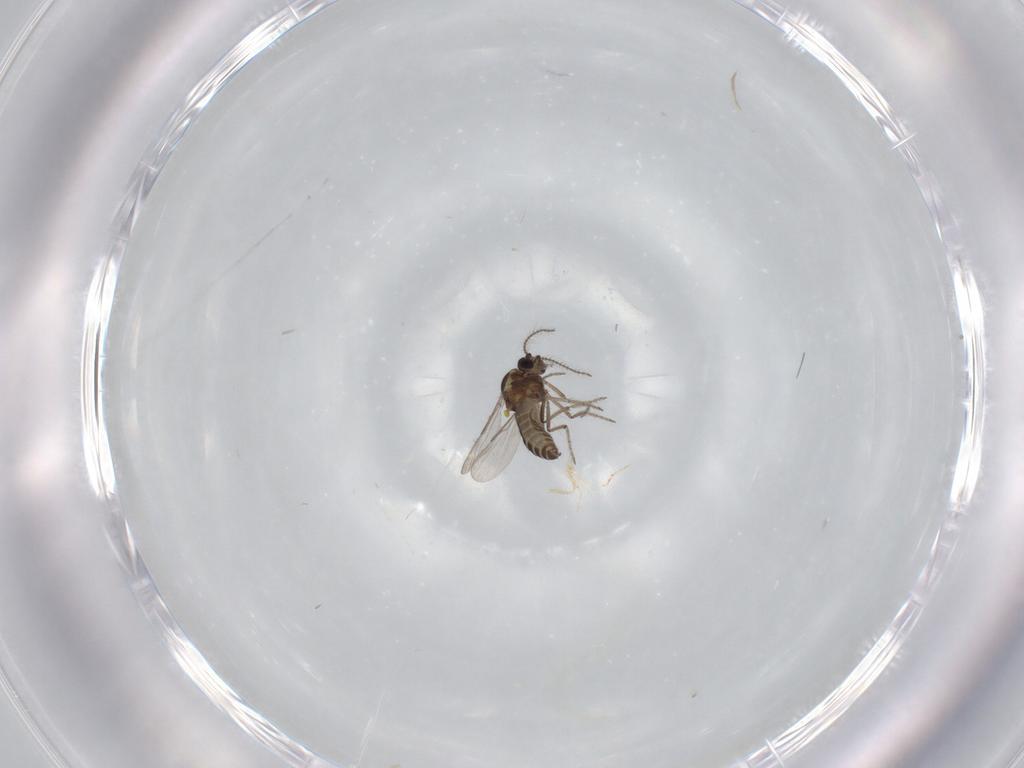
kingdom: Animalia
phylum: Arthropoda
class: Insecta
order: Diptera
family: Ceratopogonidae
